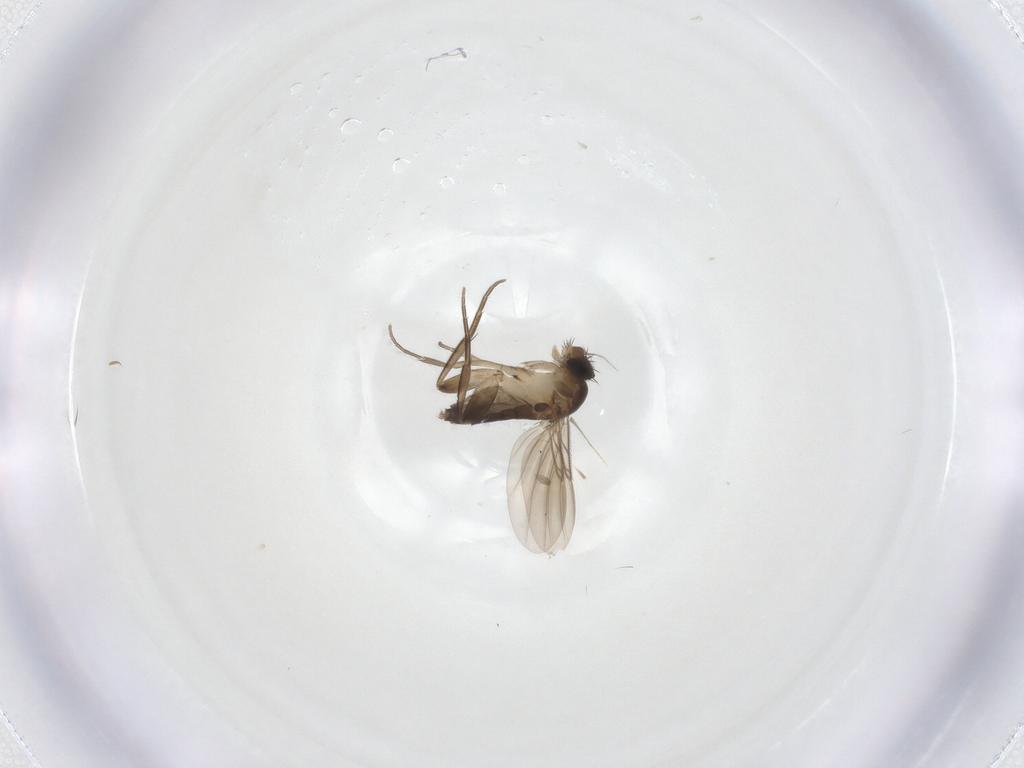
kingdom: Animalia
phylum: Arthropoda
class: Insecta
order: Diptera
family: Phoridae
